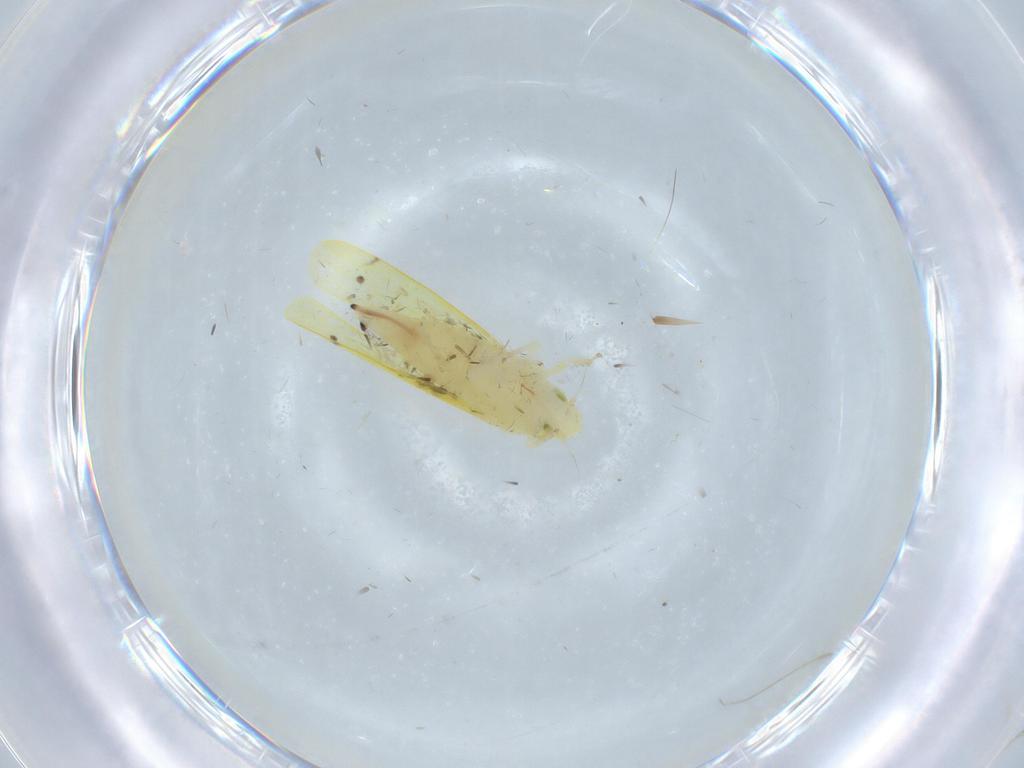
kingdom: Animalia
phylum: Arthropoda
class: Insecta
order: Hemiptera
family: Cicadellidae
